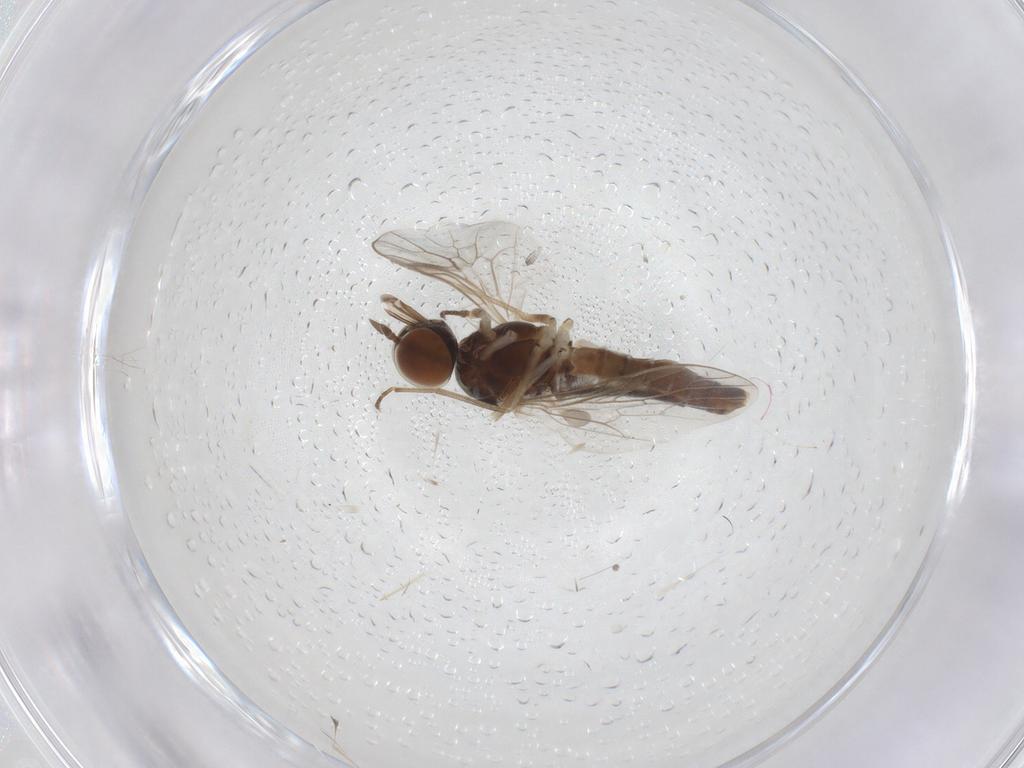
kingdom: Animalia
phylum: Arthropoda
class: Insecta
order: Diptera
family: Scenopinidae
